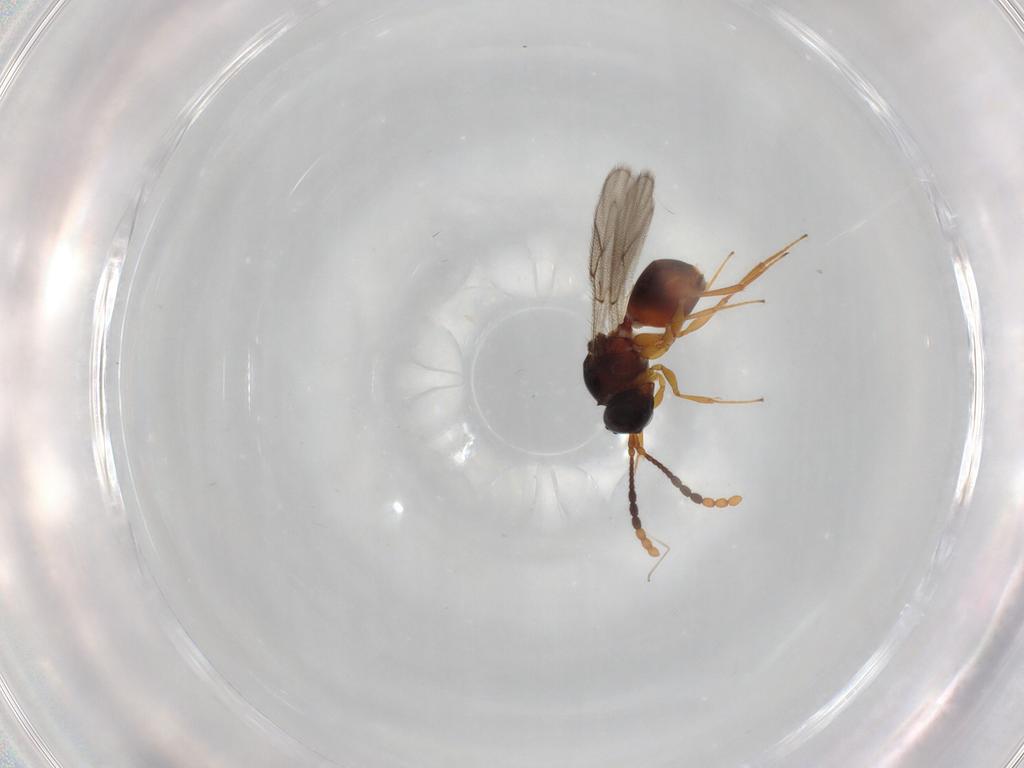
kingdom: Animalia
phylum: Arthropoda
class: Insecta
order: Hymenoptera
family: Figitidae
